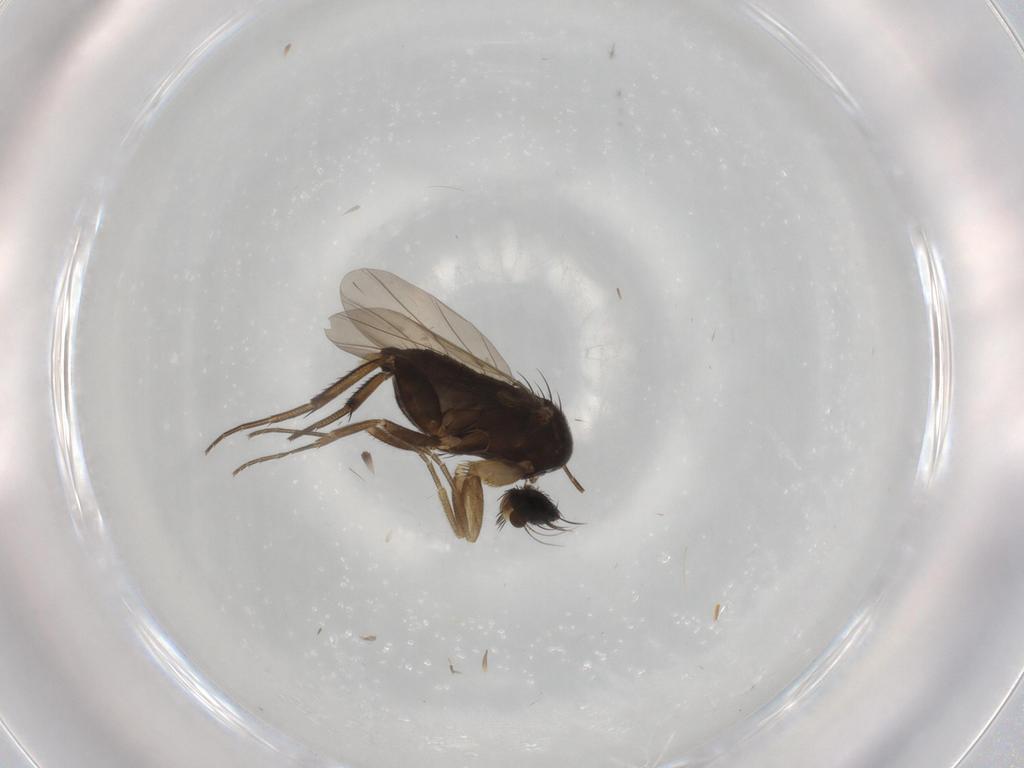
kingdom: Animalia
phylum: Arthropoda
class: Insecta
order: Diptera
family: Phoridae
